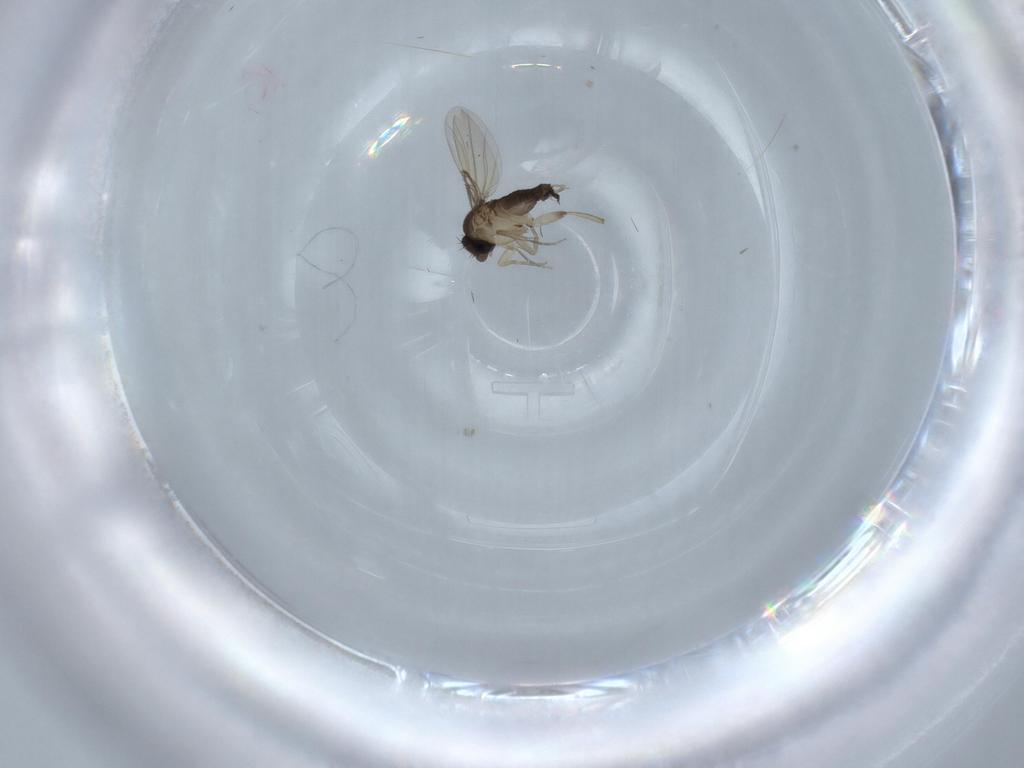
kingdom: Animalia
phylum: Arthropoda
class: Insecta
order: Diptera
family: Phoridae
